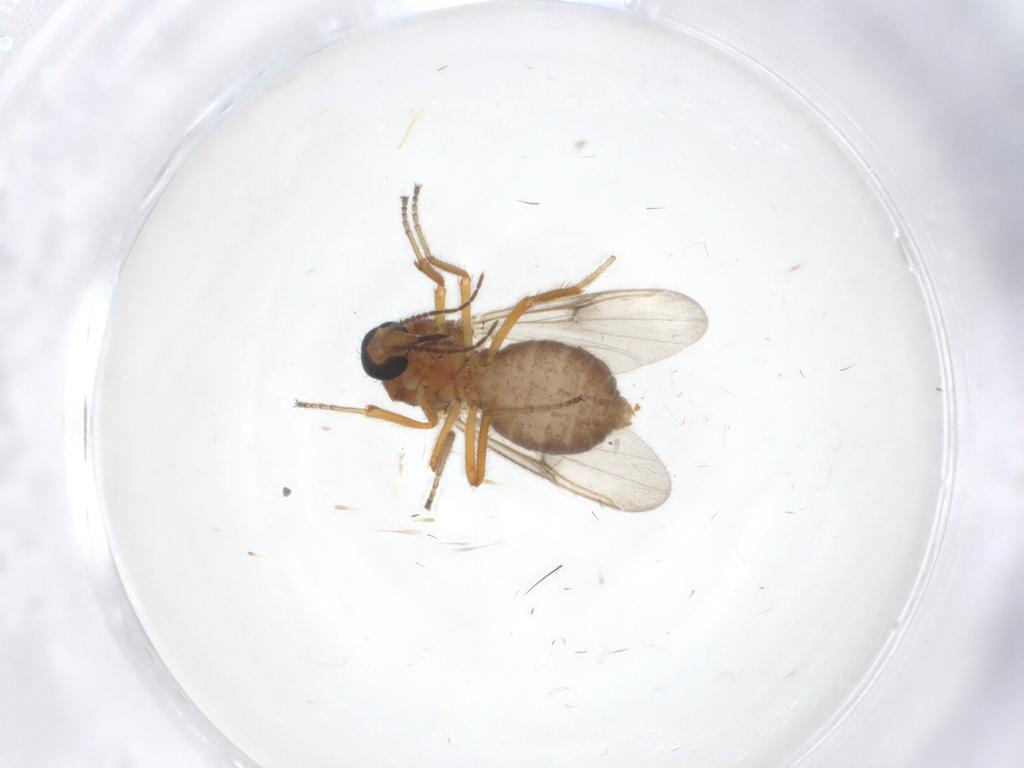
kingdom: Animalia
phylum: Arthropoda
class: Insecta
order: Diptera
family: Ceratopogonidae
